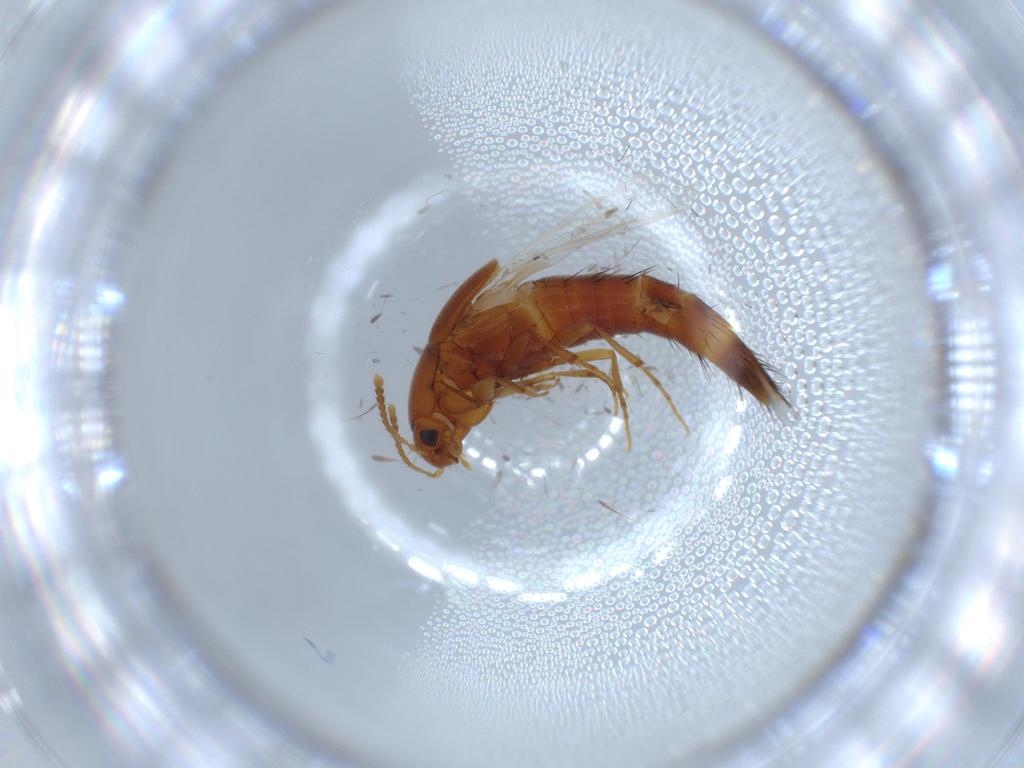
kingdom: Animalia
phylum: Arthropoda
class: Insecta
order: Coleoptera
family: Staphylinidae
